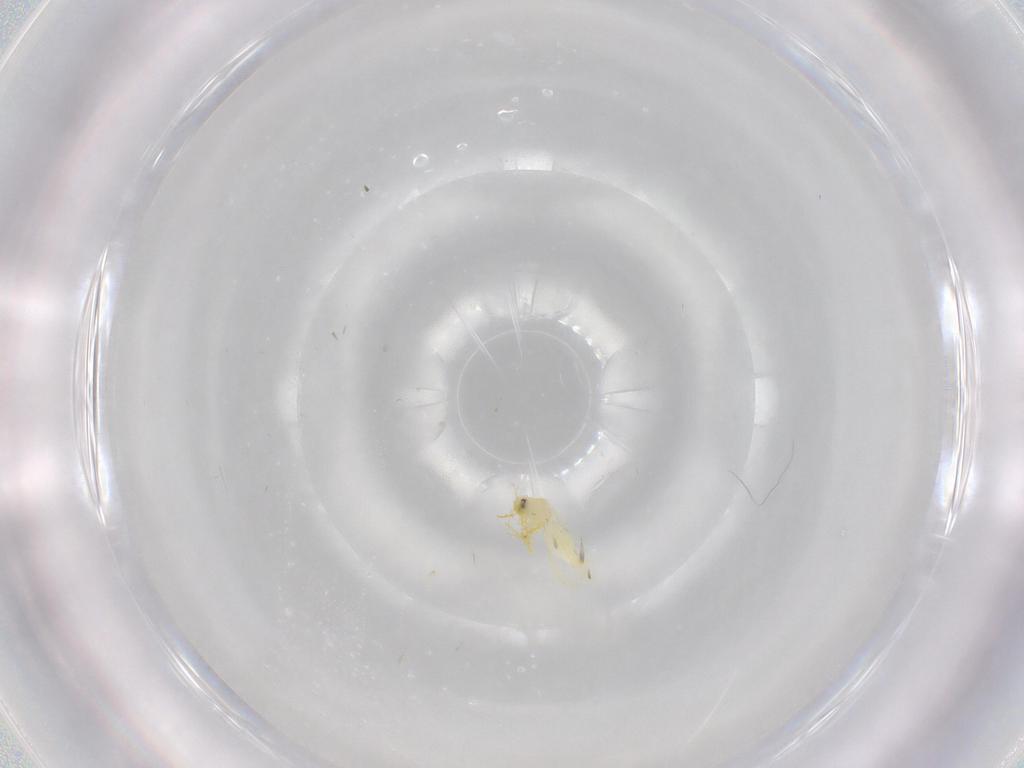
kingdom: Animalia
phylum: Arthropoda
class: Insecta
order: Hemiptera
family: Aleyrodidae
